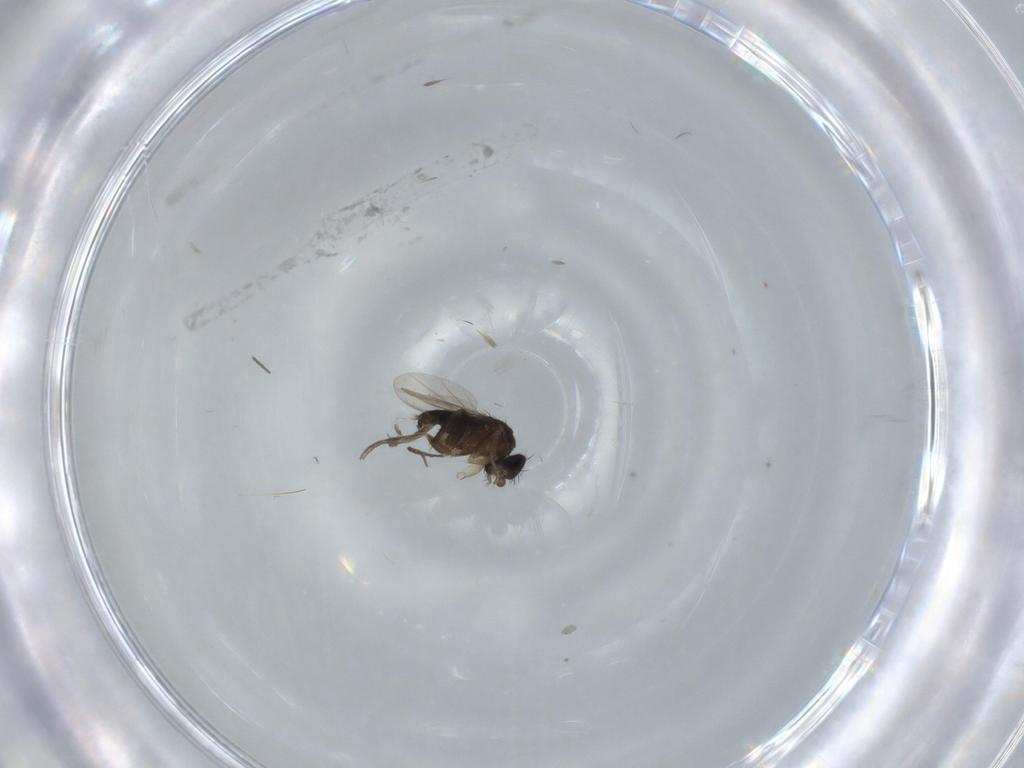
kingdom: Animalia
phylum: Arthropoda
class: Insecta
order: Diptera
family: Phoridae
